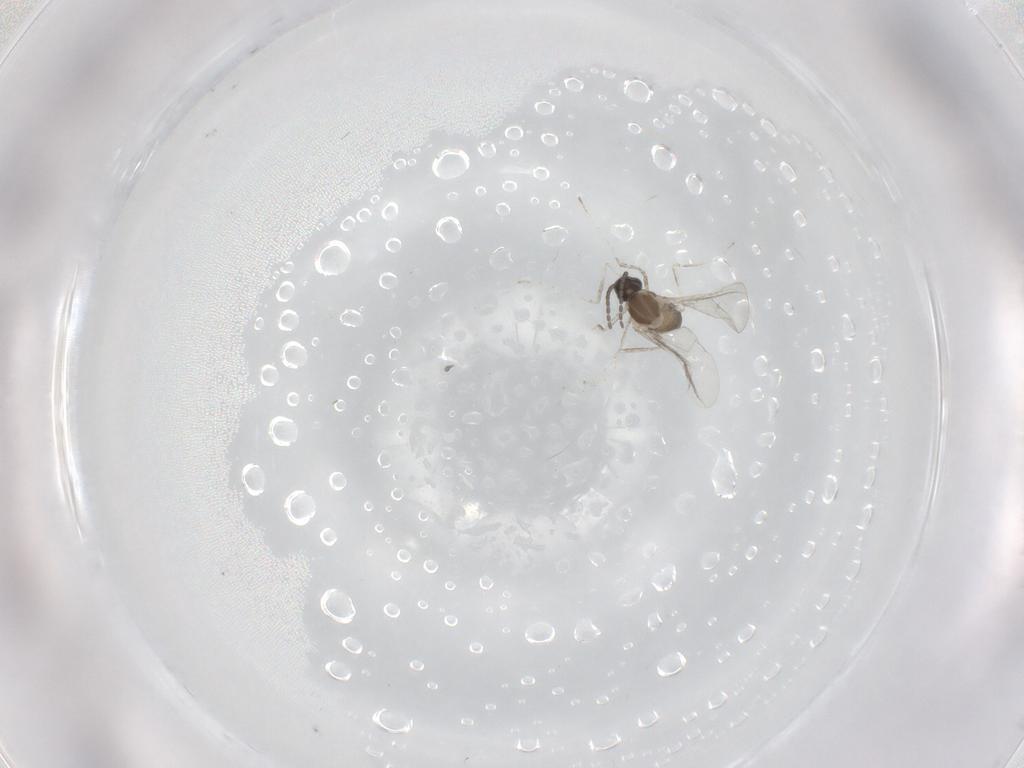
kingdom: Animalia
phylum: Arthropoda
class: Insecta
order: Diptera
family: Cecidomyiidae
